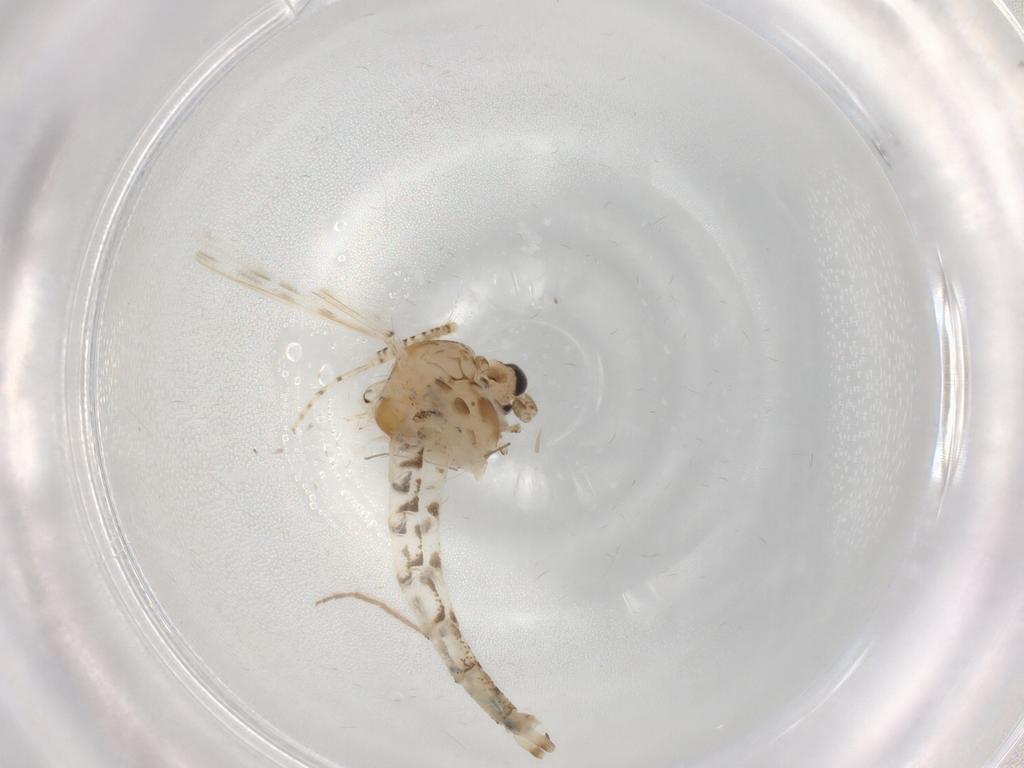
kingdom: Animalia
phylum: Arthropoda
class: Insecta
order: Diptera
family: Chaoboridae
